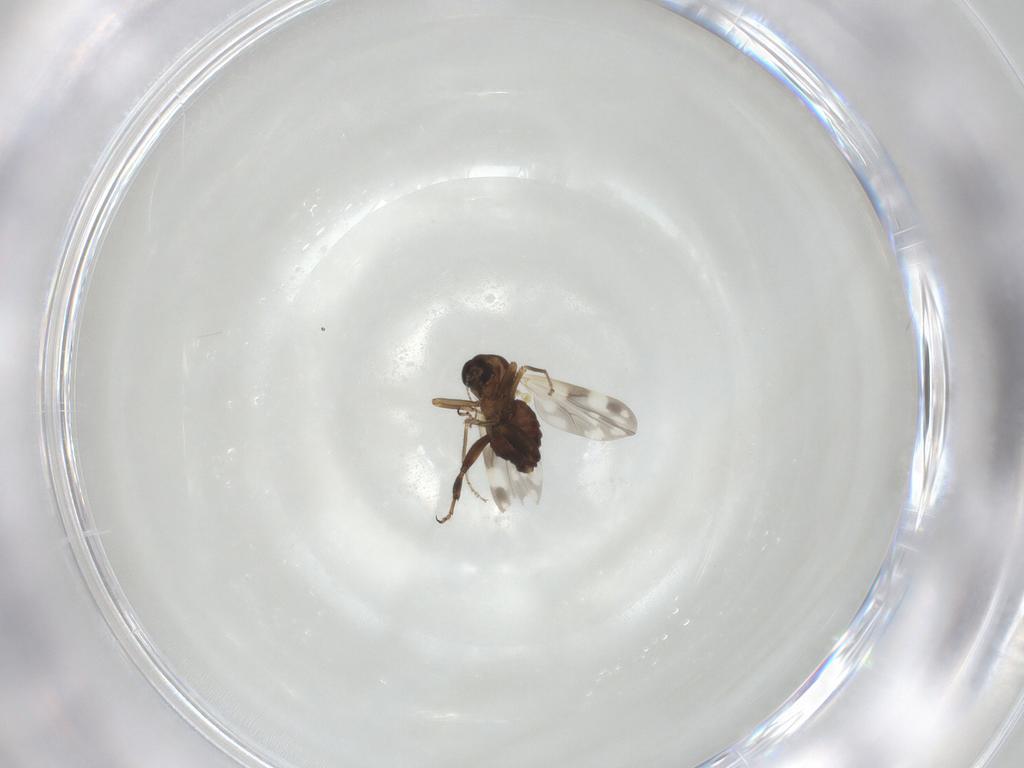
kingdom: Animalia
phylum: Arthropoda
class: Insecta
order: Diptera
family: Ceratopogonidae
